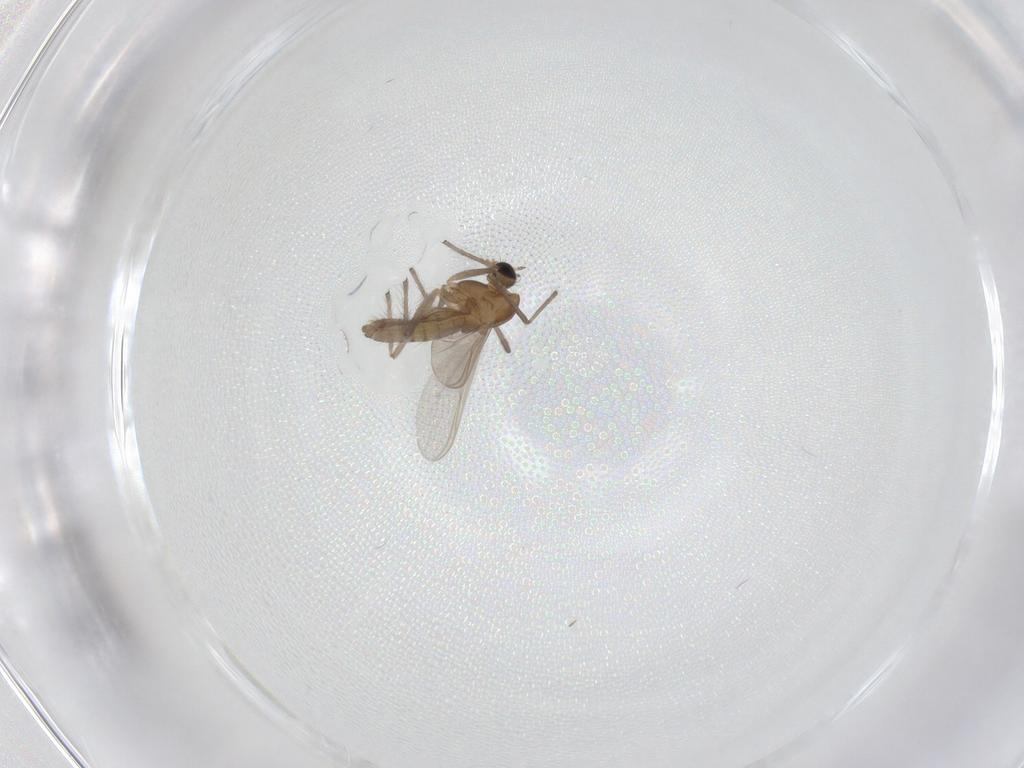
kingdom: Animalia
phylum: Arthropoda
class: Insecta
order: Diptera
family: Chironomidae
